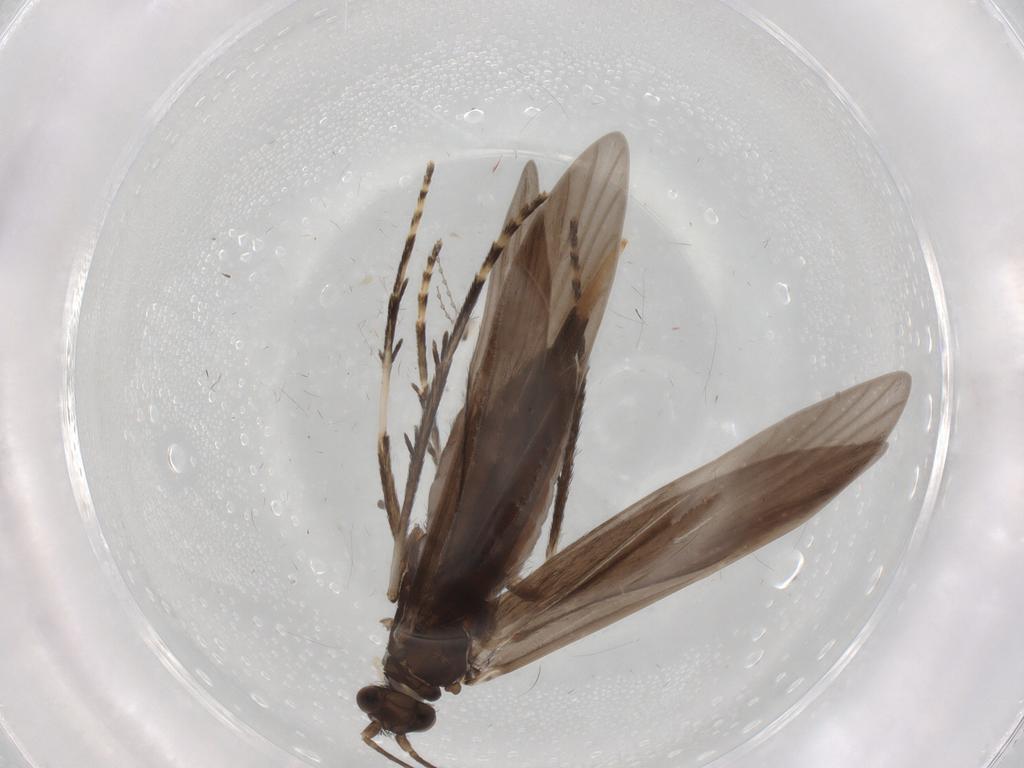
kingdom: Animalia
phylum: Arthropoda
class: Insecta
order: Trichoptera
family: Xiphocentronidae
